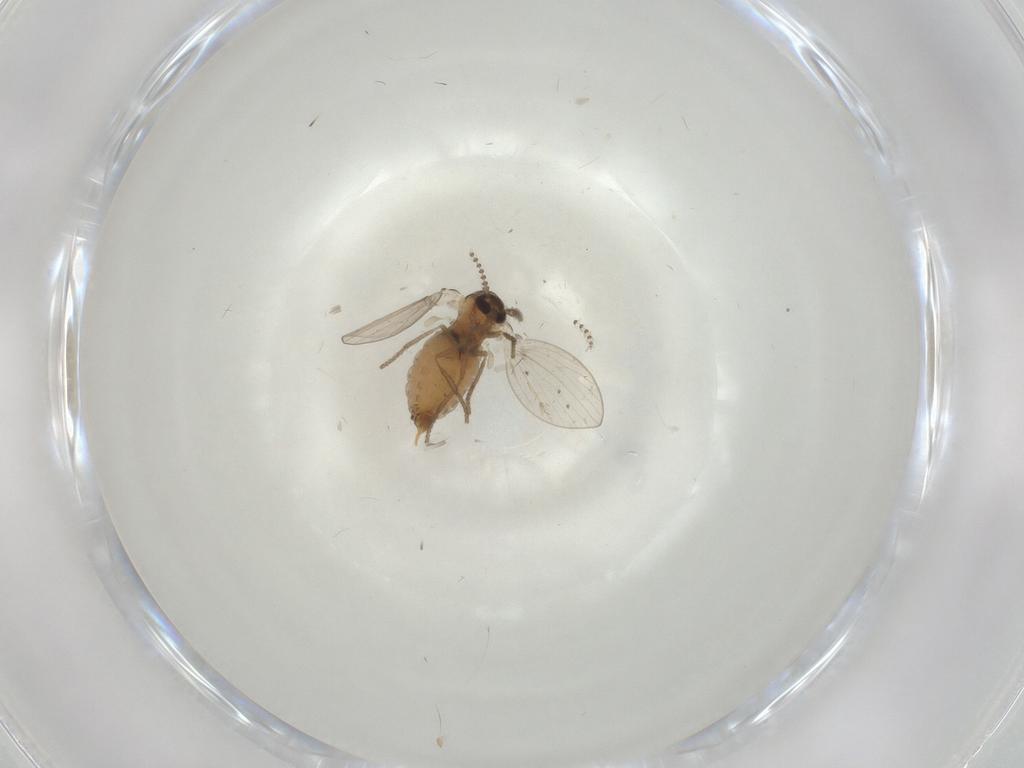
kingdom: Animalia
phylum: Arthropoda
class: Insecta
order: Diptera
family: Psychodidae
